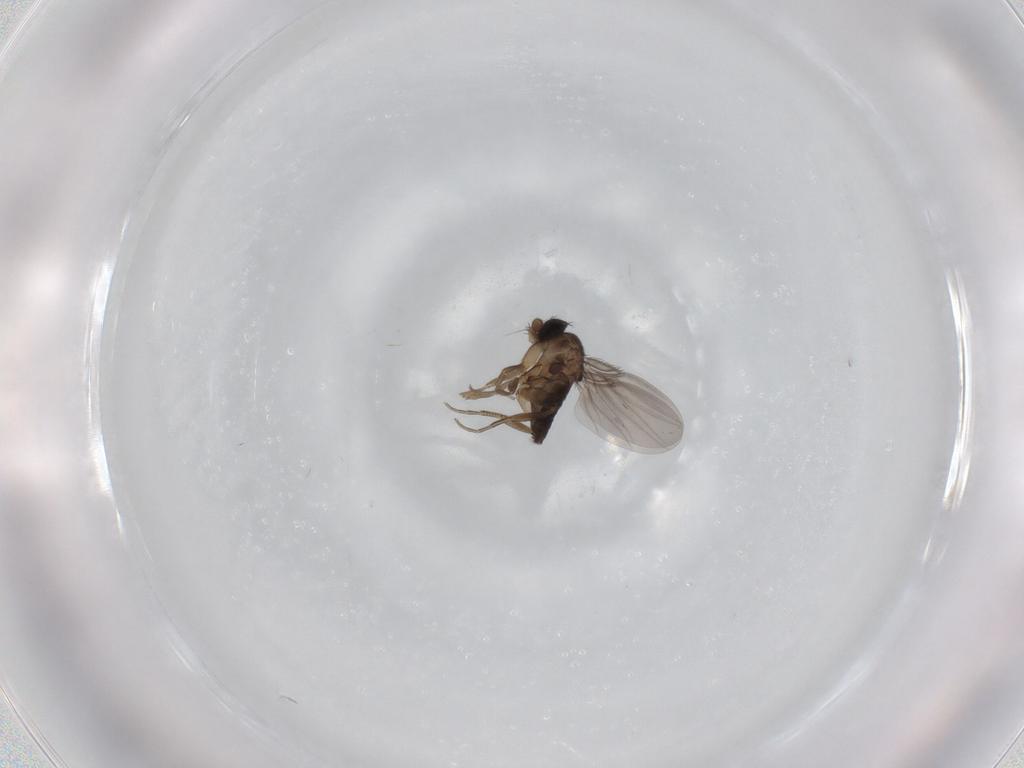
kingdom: Animalia
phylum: Arthropoda
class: Insecta
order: Diptera
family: Phoridae
